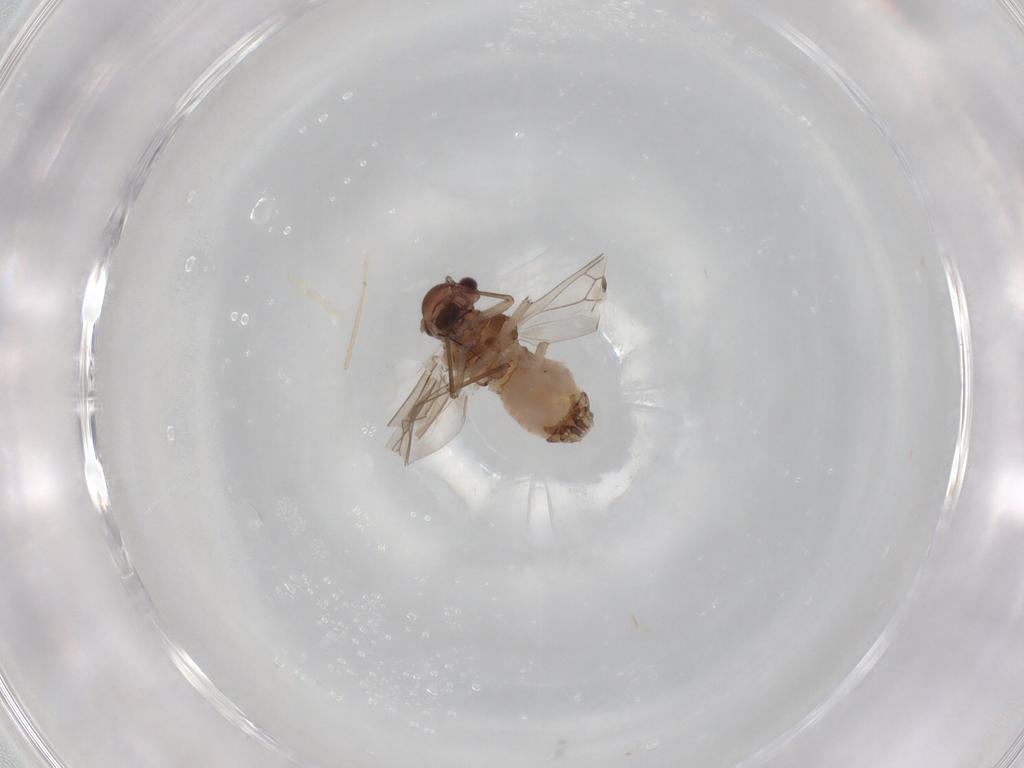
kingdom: Animalia
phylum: Arthropoda
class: Insecta
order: Psocodea
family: Peripsocidae
